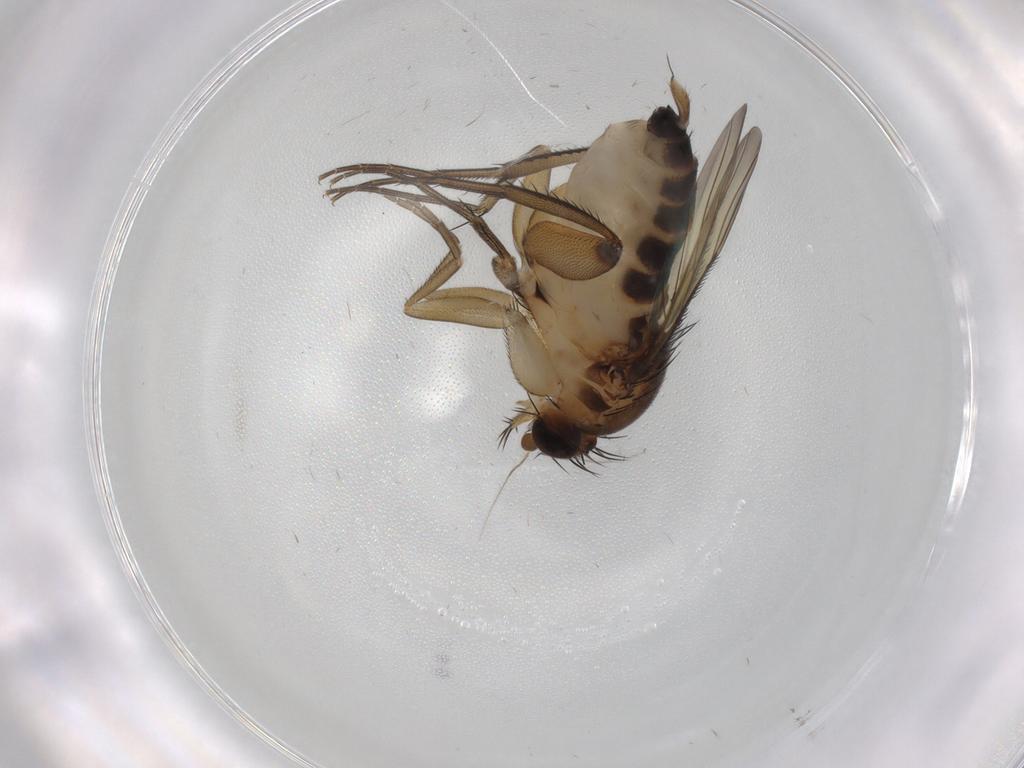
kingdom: Animalia
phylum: Arthropoda
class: Insecta
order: Diptera
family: Phoridae
